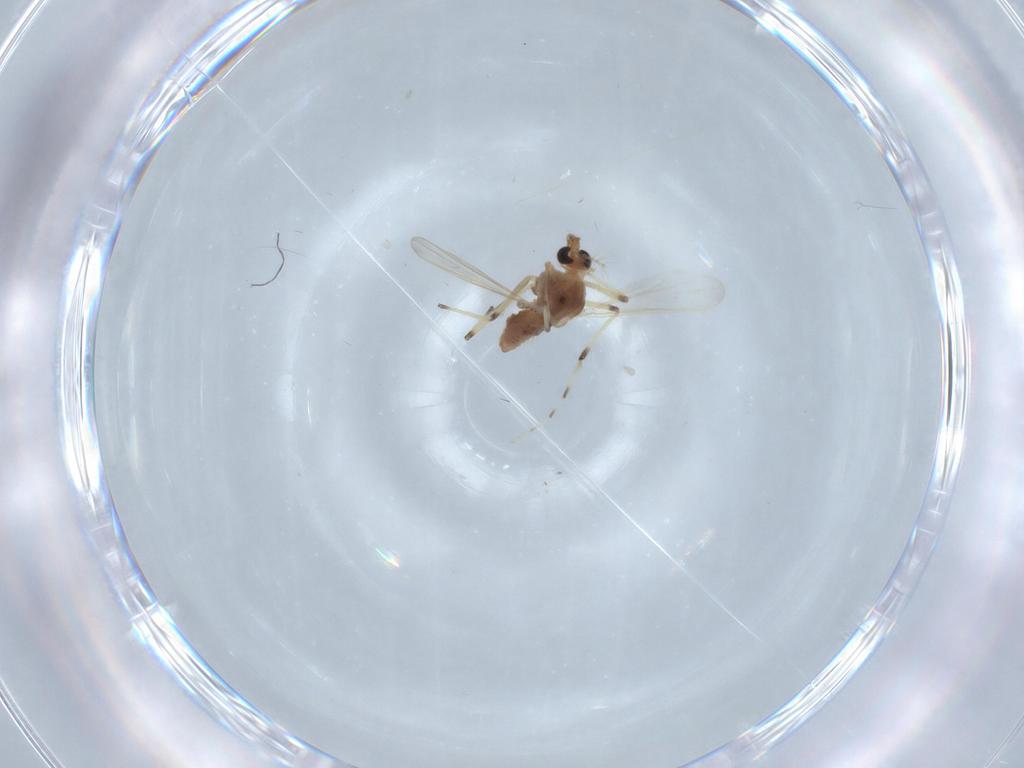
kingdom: Animalia
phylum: Arthropoda
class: Insecta
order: Diptera
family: Chironomidae
